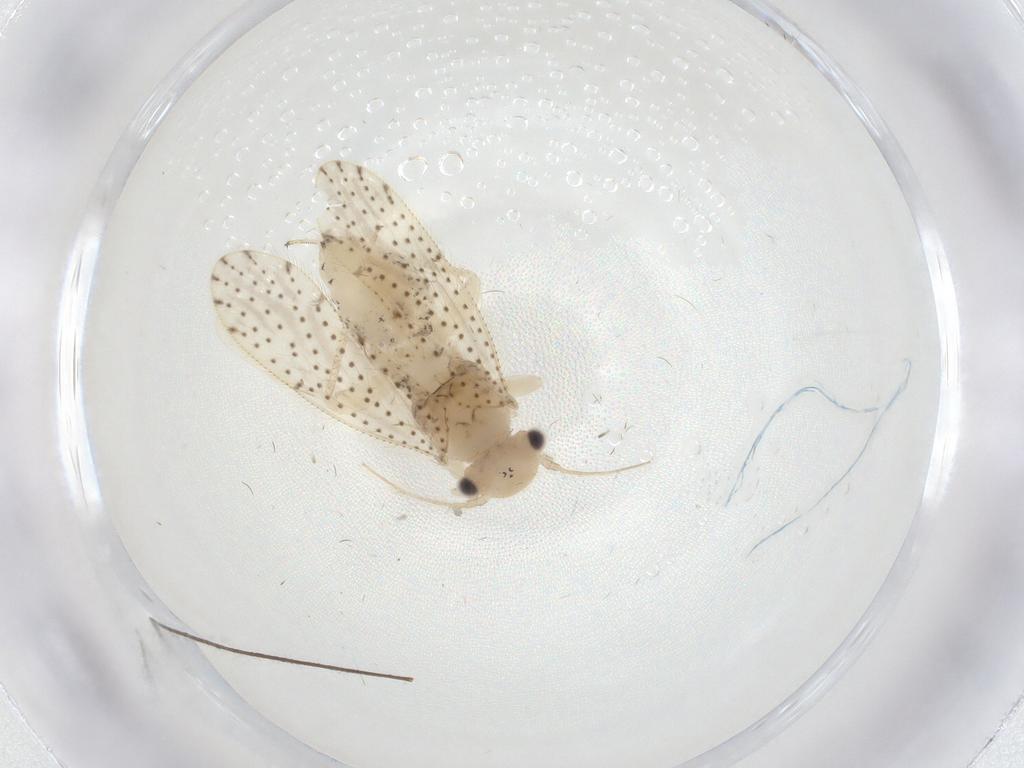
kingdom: Animalia
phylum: Arthropoda
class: Insecta
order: Psocodea
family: Myopsocidae
